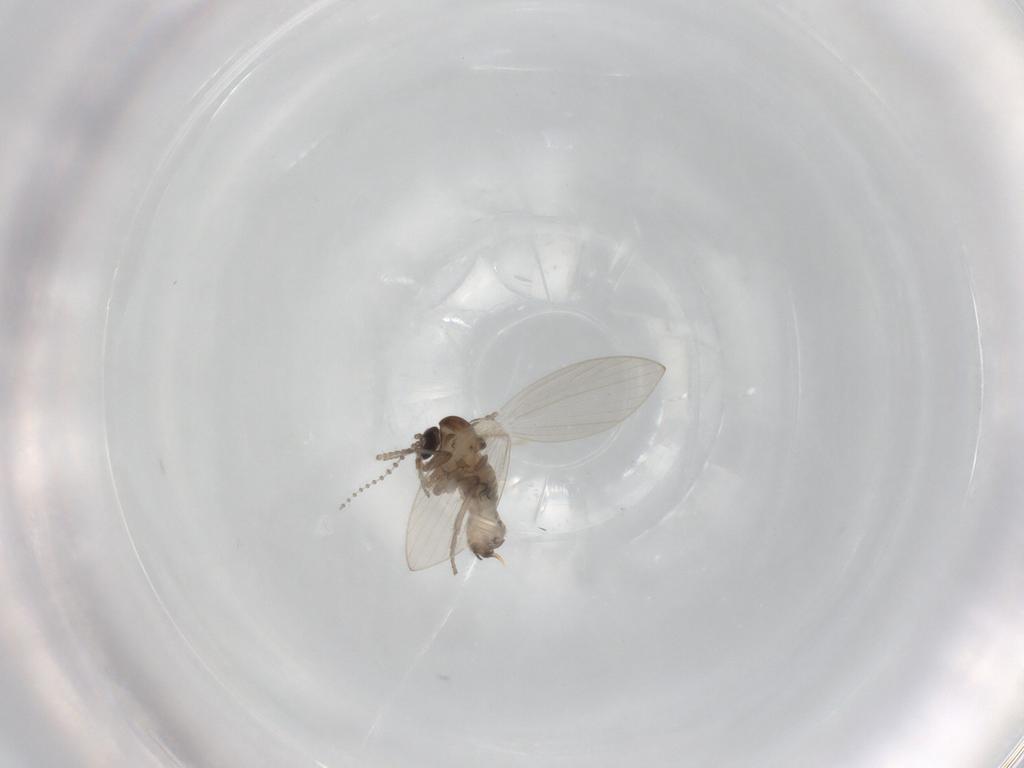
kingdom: Animalia
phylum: Arthropoda
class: Insecta
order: Diptera
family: Psychodidae
